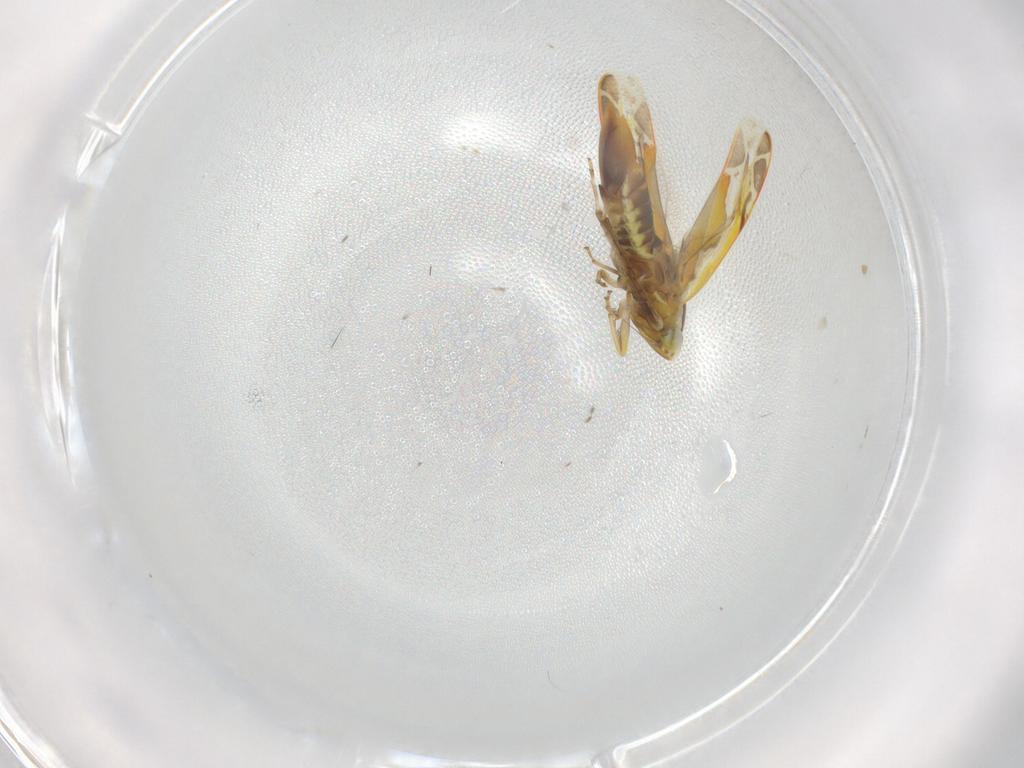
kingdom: Animalia
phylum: Arthropoda
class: Insecta
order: Hemiptera
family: Cicadellidae
